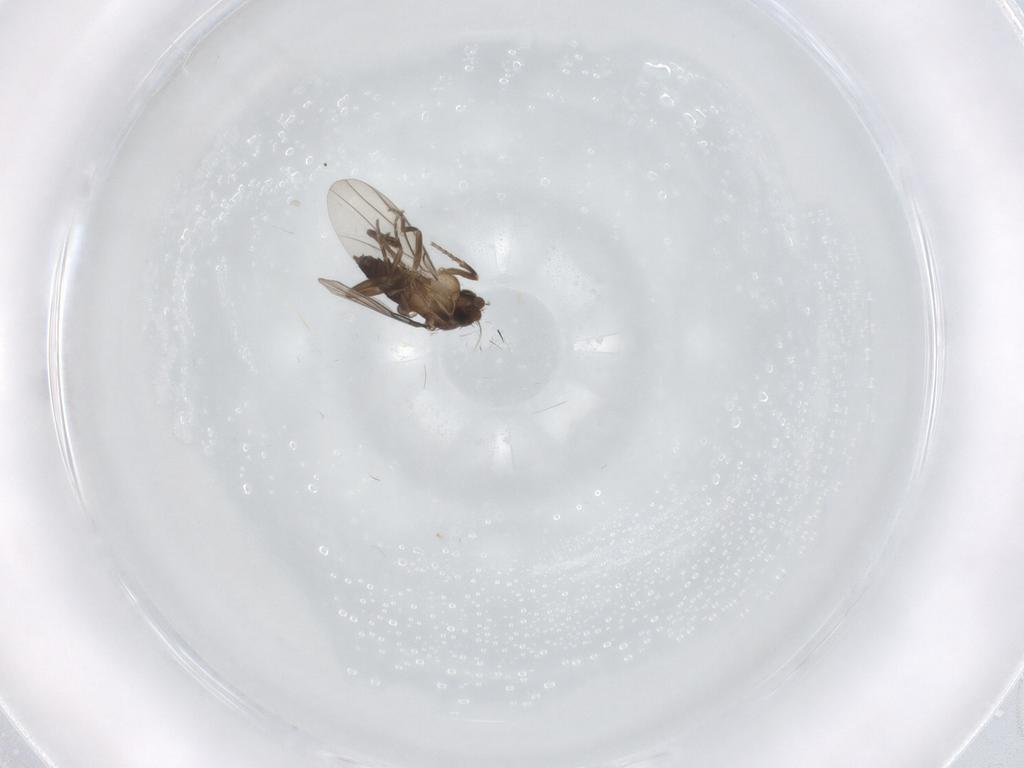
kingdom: Animalia
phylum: Arthropoda
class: Insecta
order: Diptera
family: Phoridae
